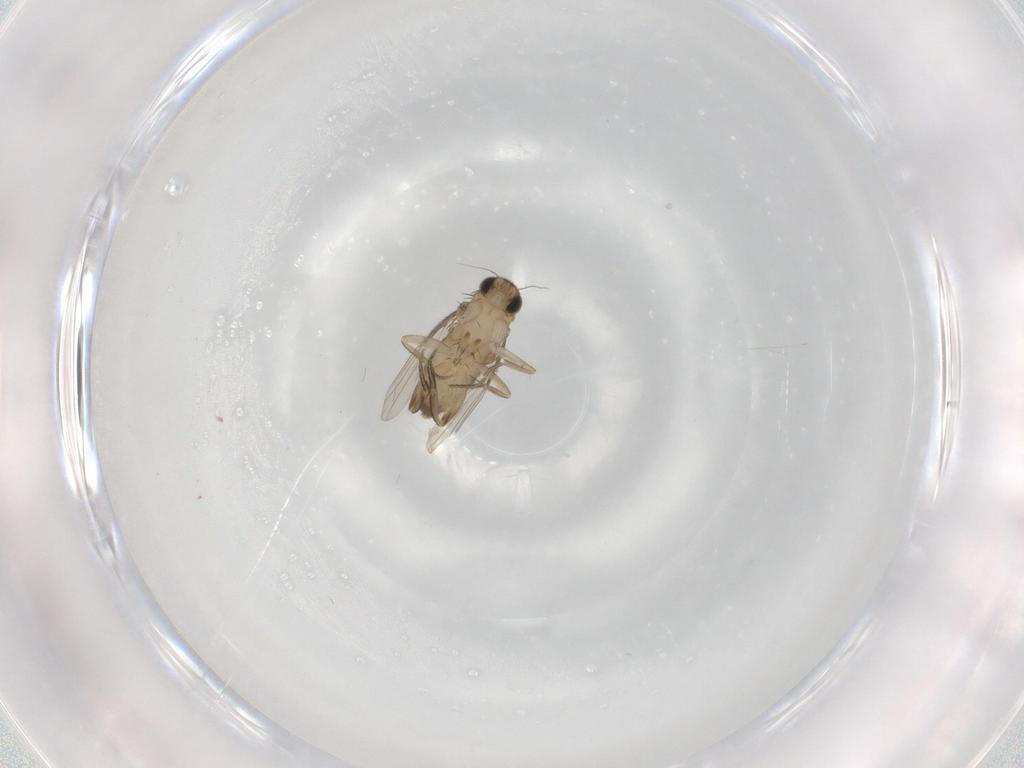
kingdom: Animalia
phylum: Arthropoda
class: Insecta
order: Diptera
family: Phoridae
